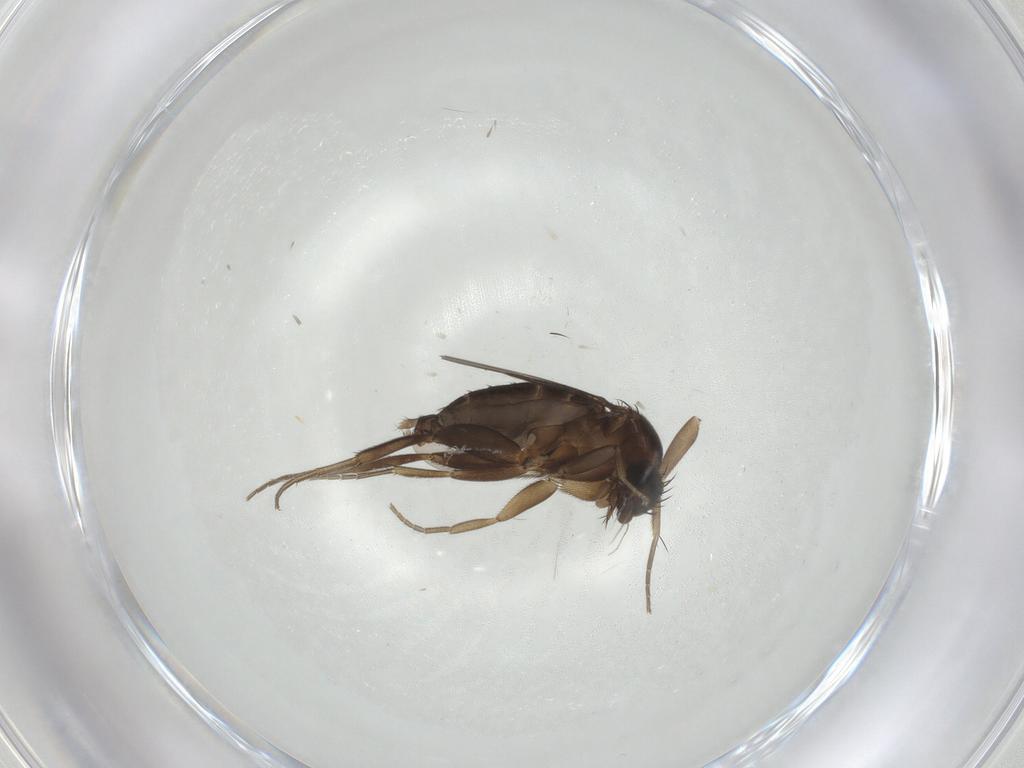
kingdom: Animalia
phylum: Arthropoda
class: Insecta
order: Diptera
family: Phoridae
